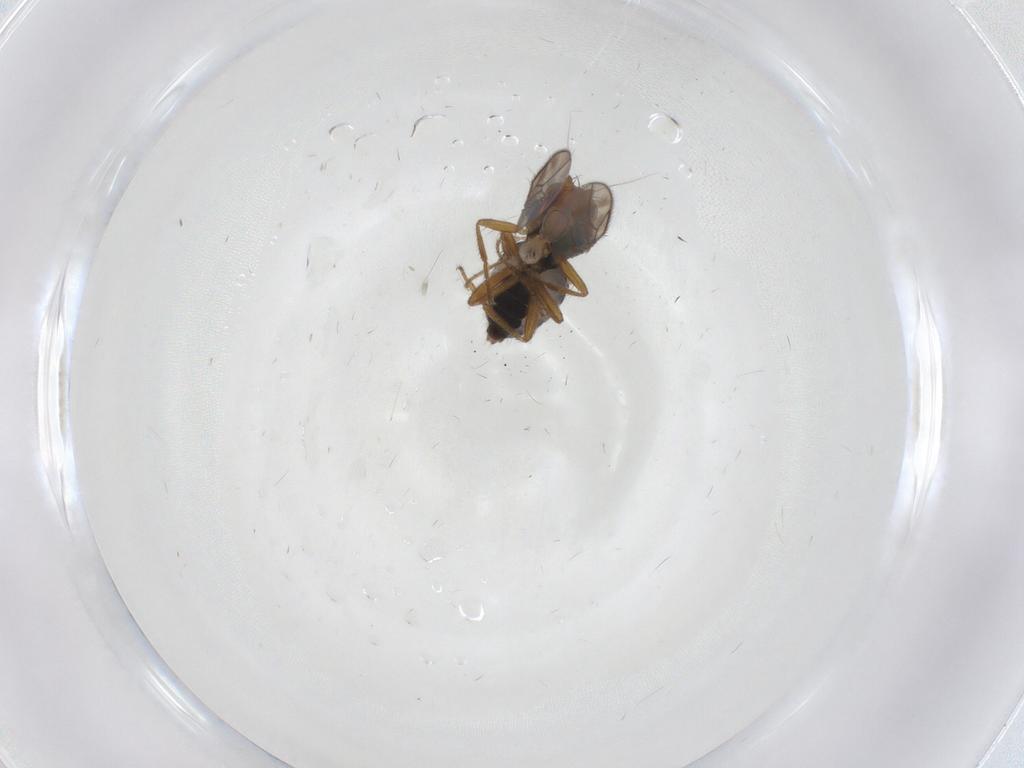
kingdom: Animalia
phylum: Arthropoda
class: Insecta
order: Diptera
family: Sphaeroceridae
